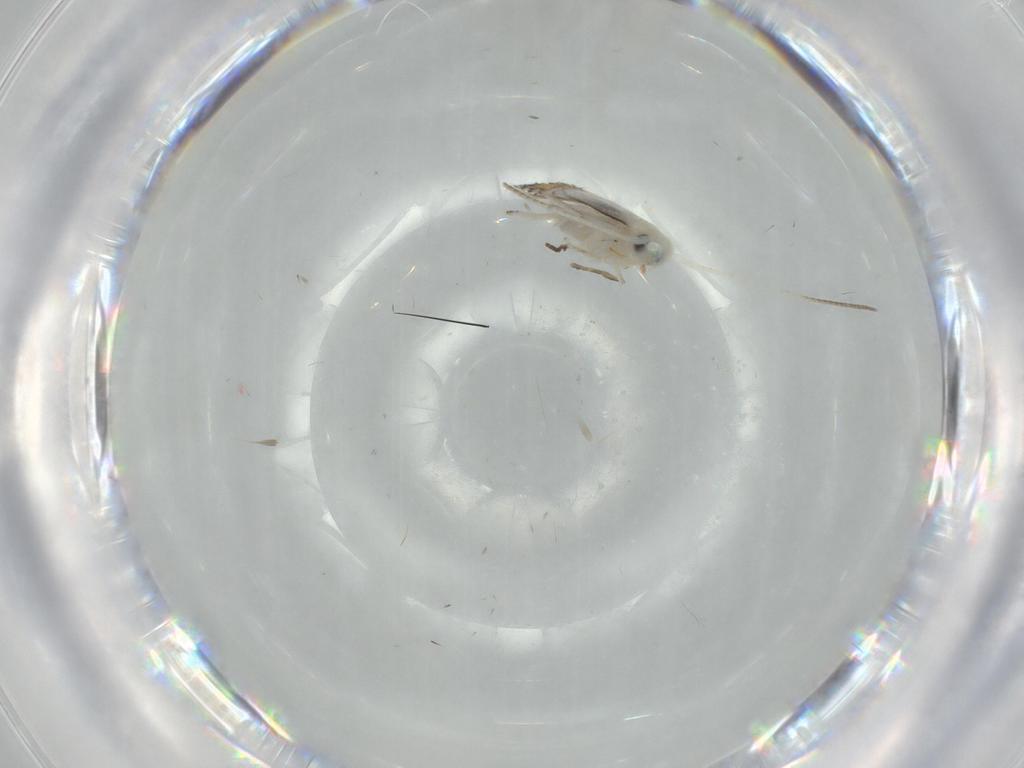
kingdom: Animalia
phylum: Arthropoda
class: Insecta
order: Lepidoptera
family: Nepticulidae
